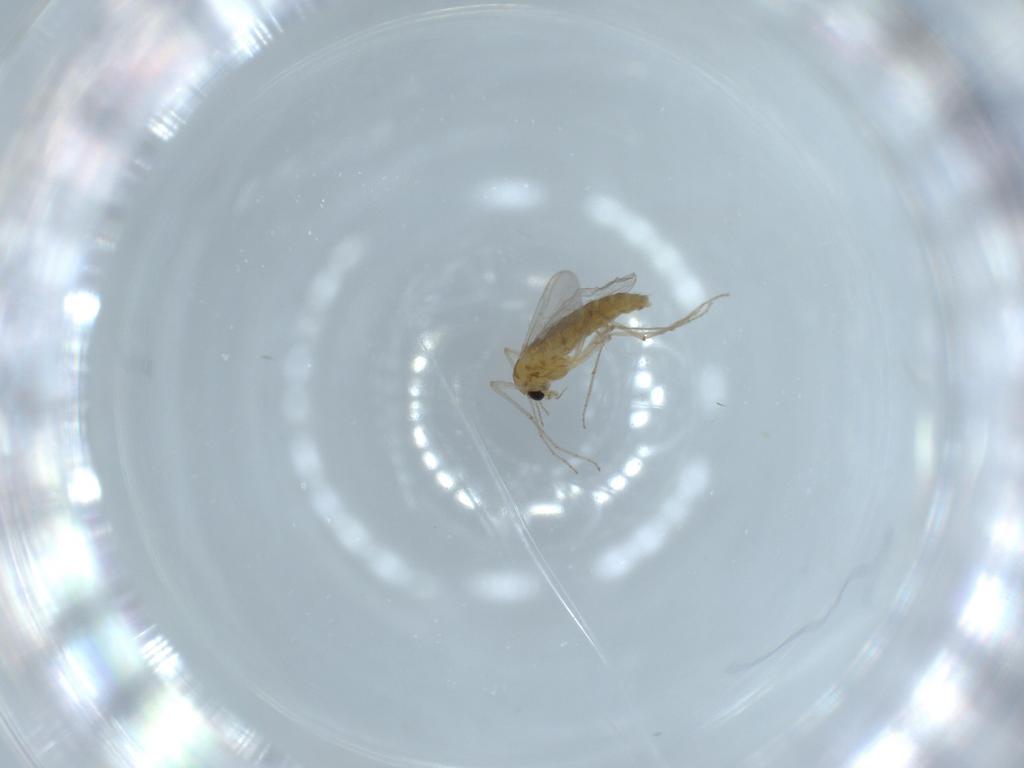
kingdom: Animalia
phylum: Arthropoda
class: Insecta
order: Diptera
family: Chironomidae
